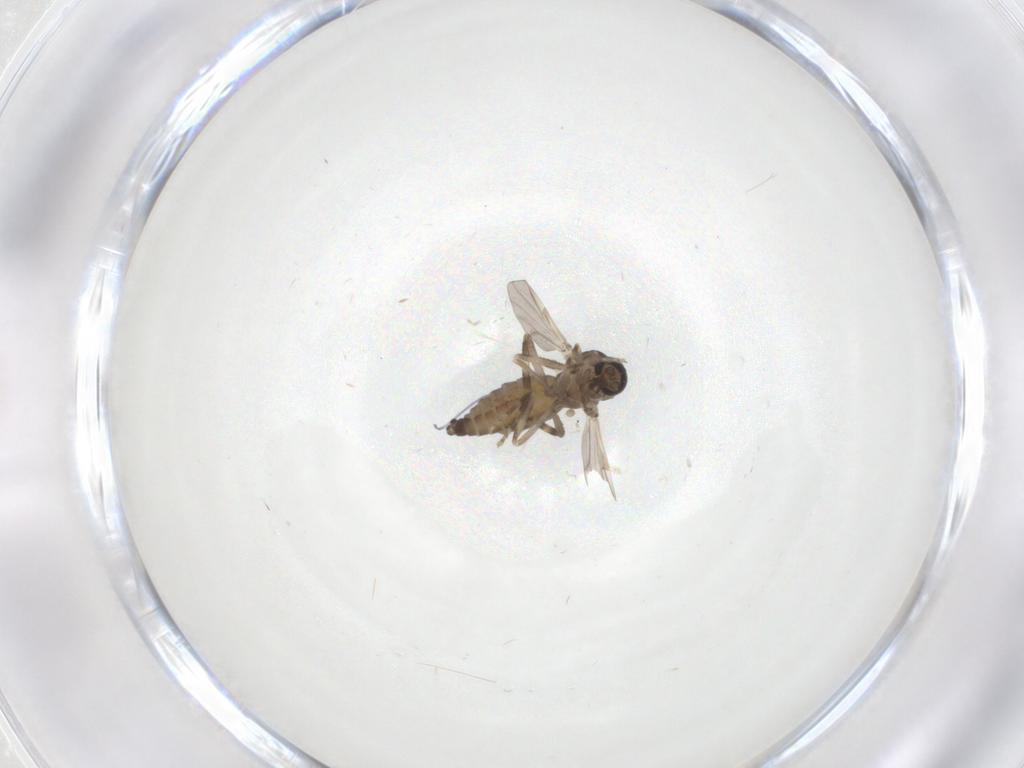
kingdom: Animalia
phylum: Arthropoda
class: Insecta
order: Diptera
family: Ceratopogonidae
